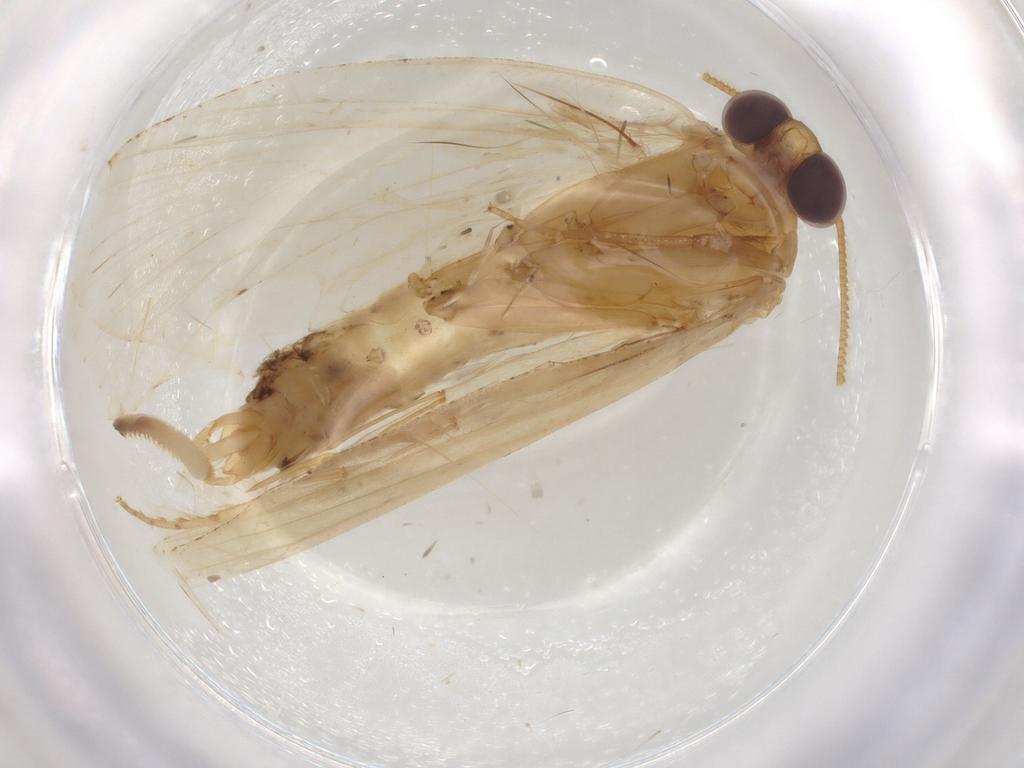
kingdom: Animalia
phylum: Arthropoda
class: Insecta
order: Lepidoptera
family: Psychidae
